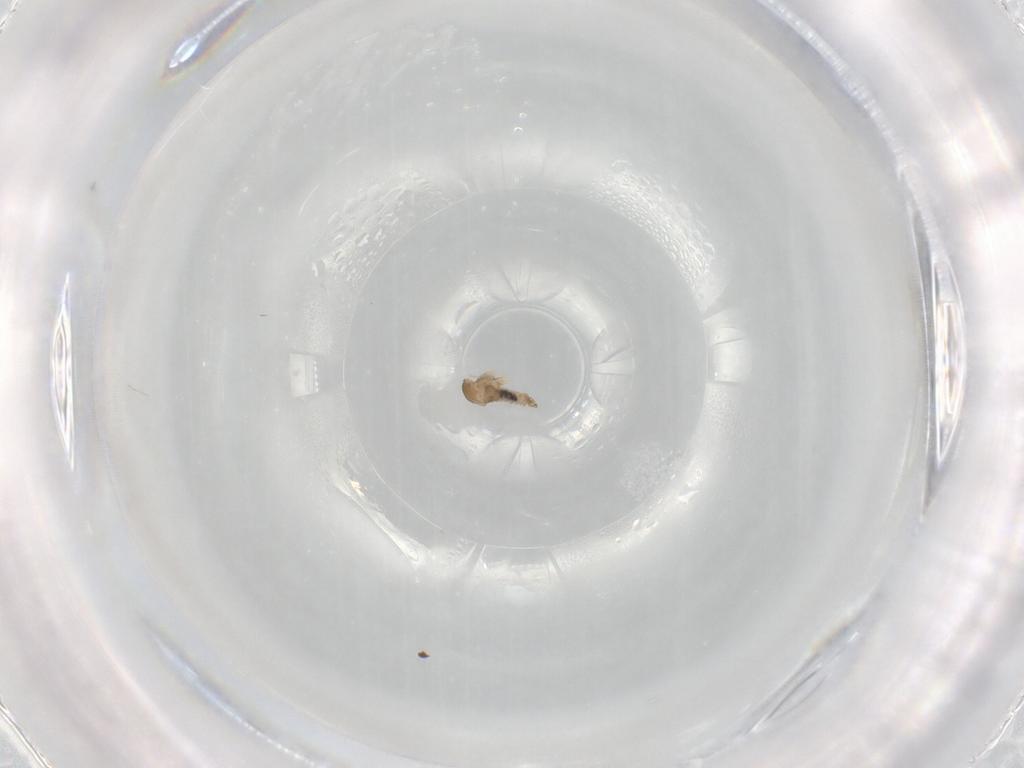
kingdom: Animalia
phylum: Arthropoda
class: Insecta
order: Diptera
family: Cecidomyiidae
